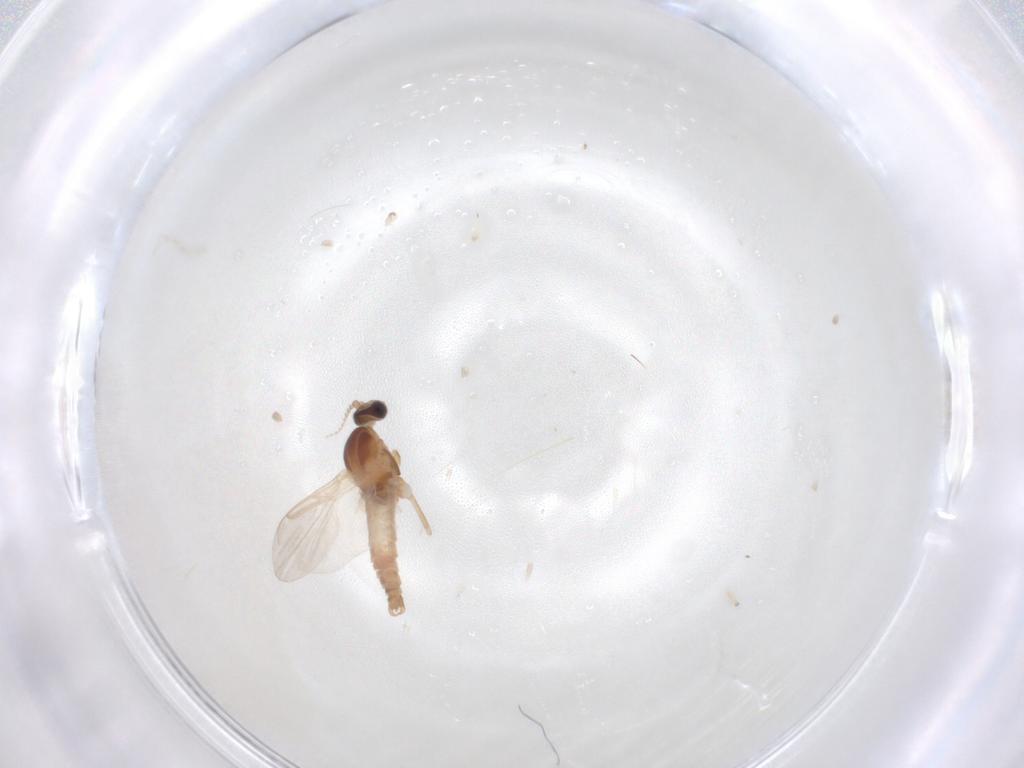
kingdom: Animalia
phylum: Arthropoda
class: Insecta
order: Diptera
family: Cecidomyiidae
